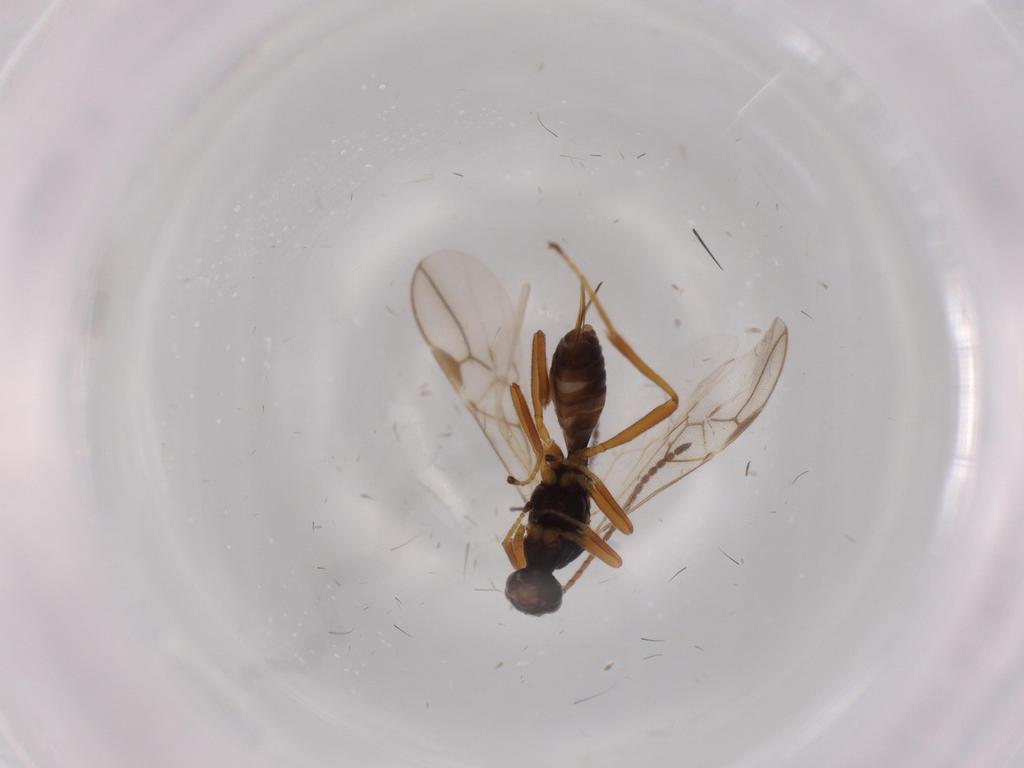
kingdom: Animalia
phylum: Arthropoda
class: Insecta
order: Hymenoptera
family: Braconidae
